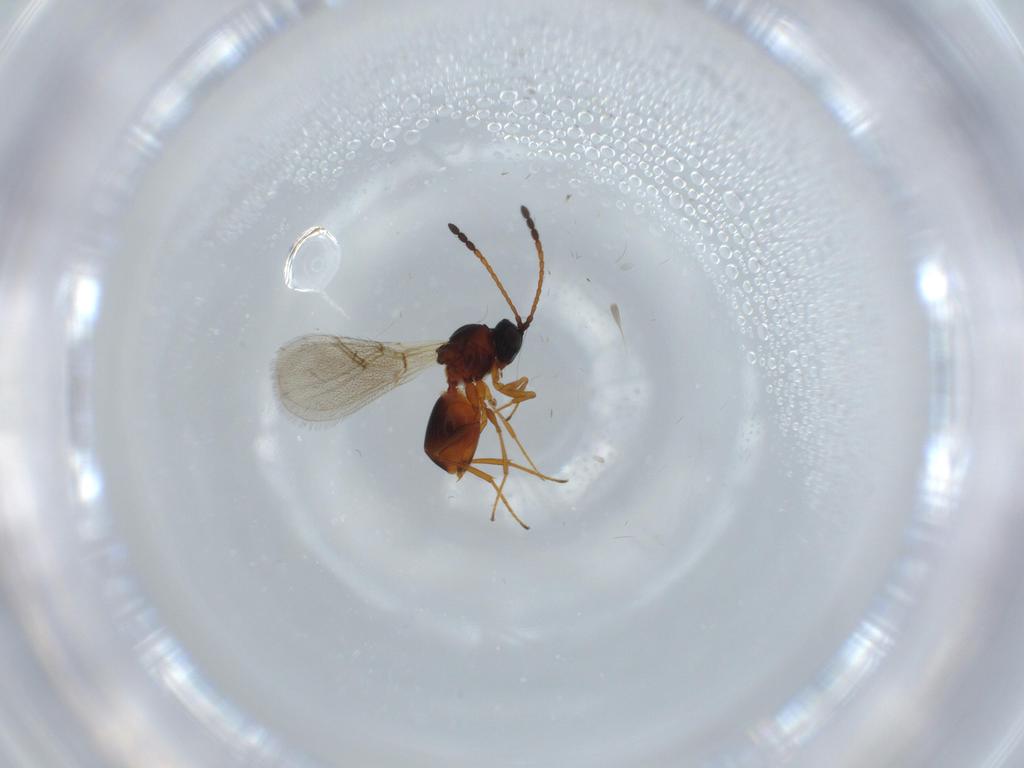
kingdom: Animalia
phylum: Arthropoda
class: Insecta
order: Hymenoptera
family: Figitidae
